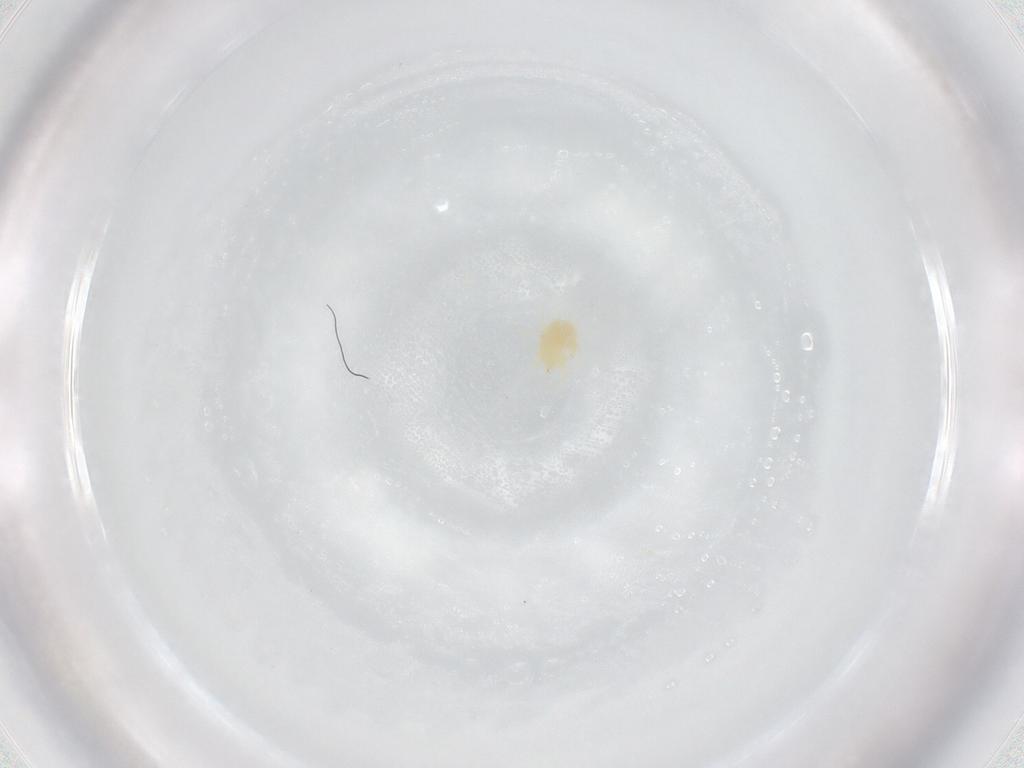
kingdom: Animalia
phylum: Arthropoda
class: Arachnida
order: Trombidiformes
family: Tetranychidae
